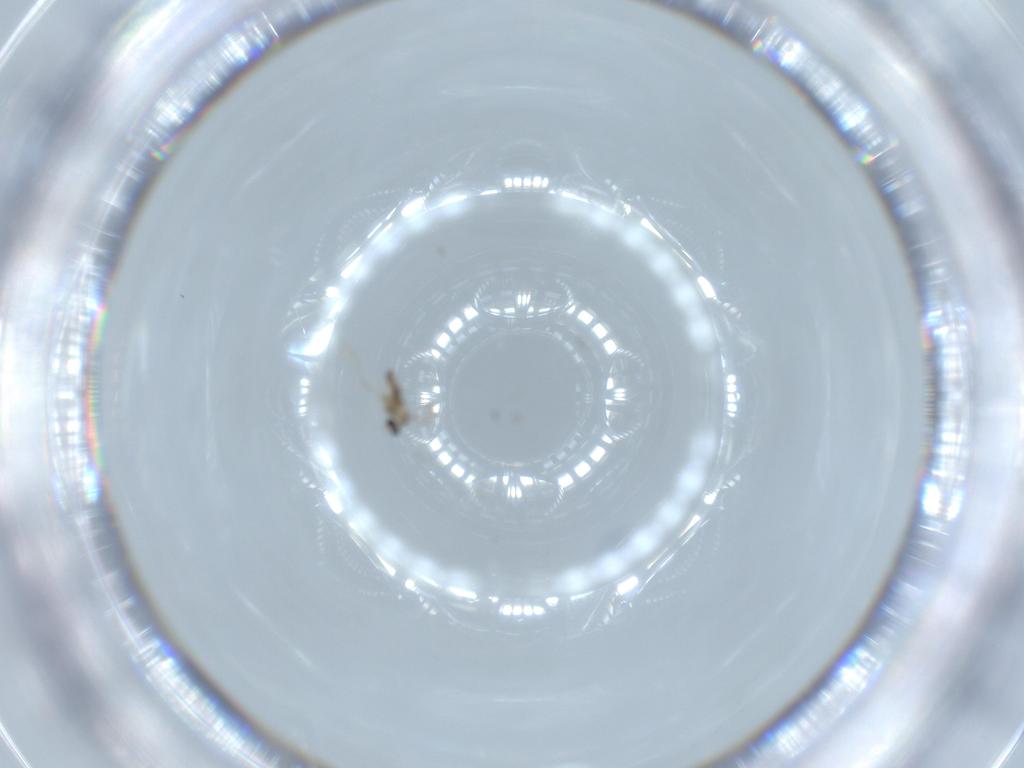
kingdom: Animalia
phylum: Arthropoda
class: Insecta
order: Diptera
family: Cecidomyiidae
